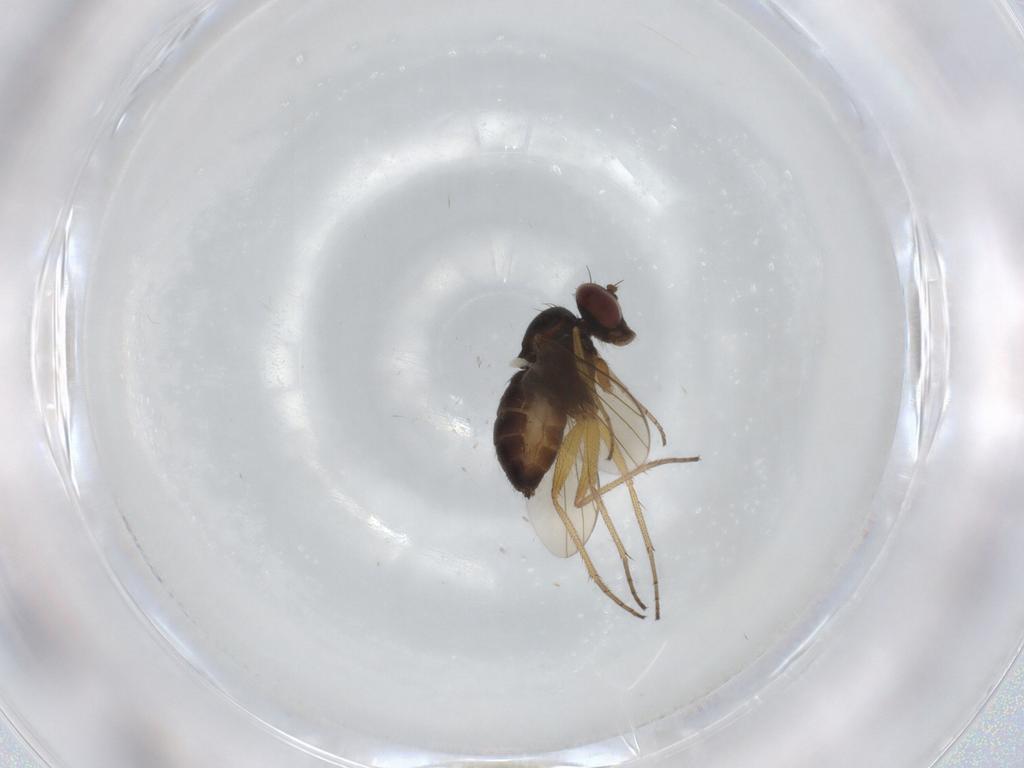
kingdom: Animalia
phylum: Arthropoda
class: Insecta
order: Diptera
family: Dolichopodidae
